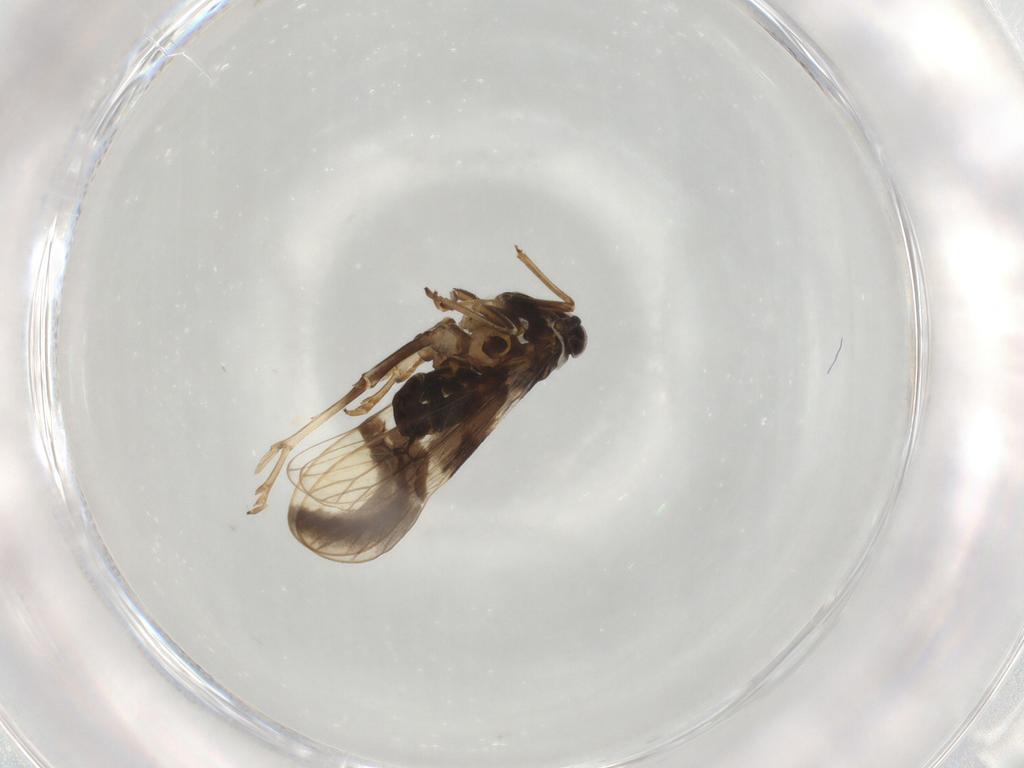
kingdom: Animalia
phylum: Arthropoda
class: Insecta
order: Hemiptera
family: Delphacidae
